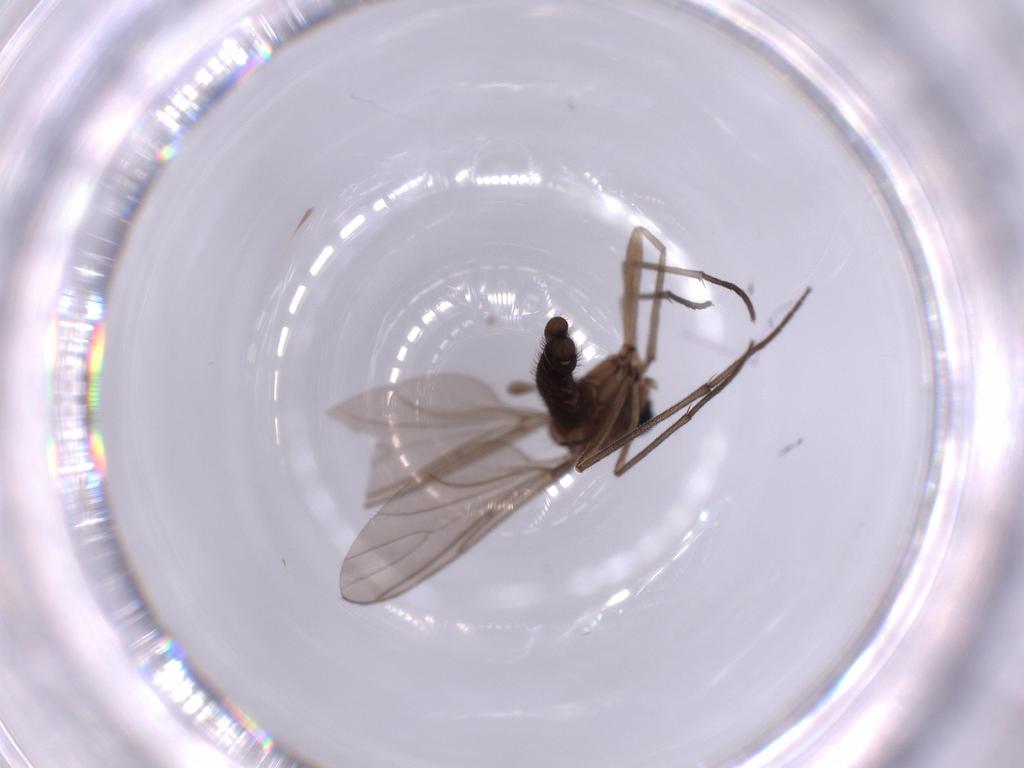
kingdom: Animalia
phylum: Arthropoda
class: Insecta
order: Diptera
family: Sciaridae
